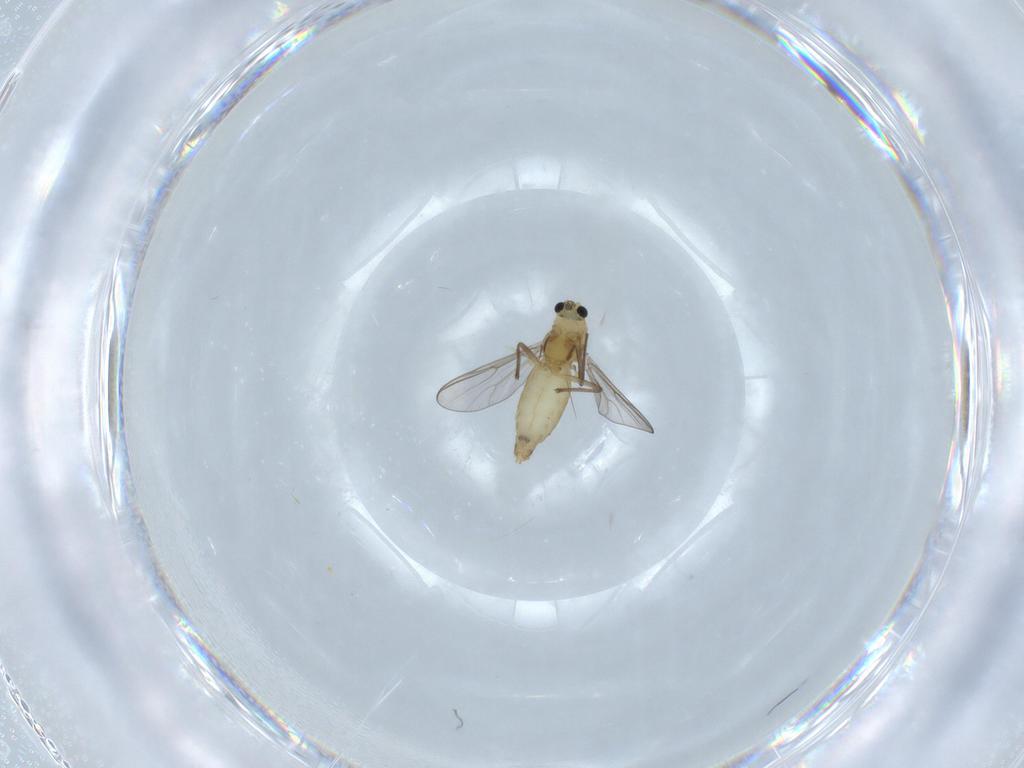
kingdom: Animalia
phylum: Arthropoda
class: Insecta
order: Diptera
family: Chironomidae
